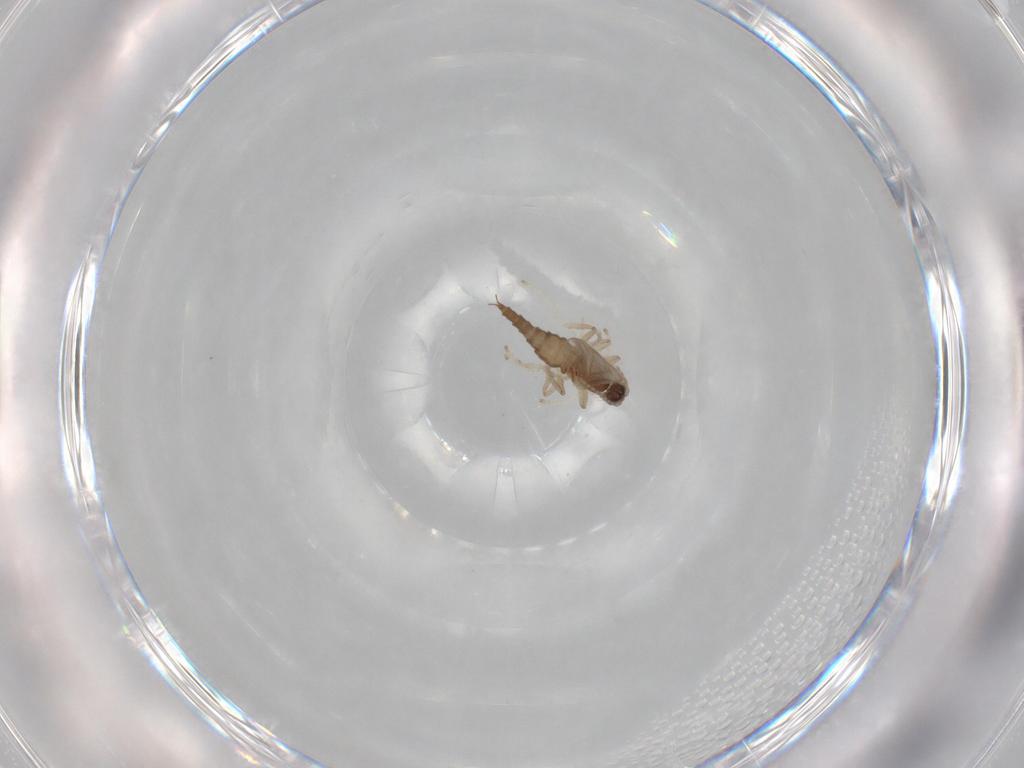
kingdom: Animalia
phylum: Arthropoda
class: Insecta
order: Diptera
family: Cecidomyiidae
